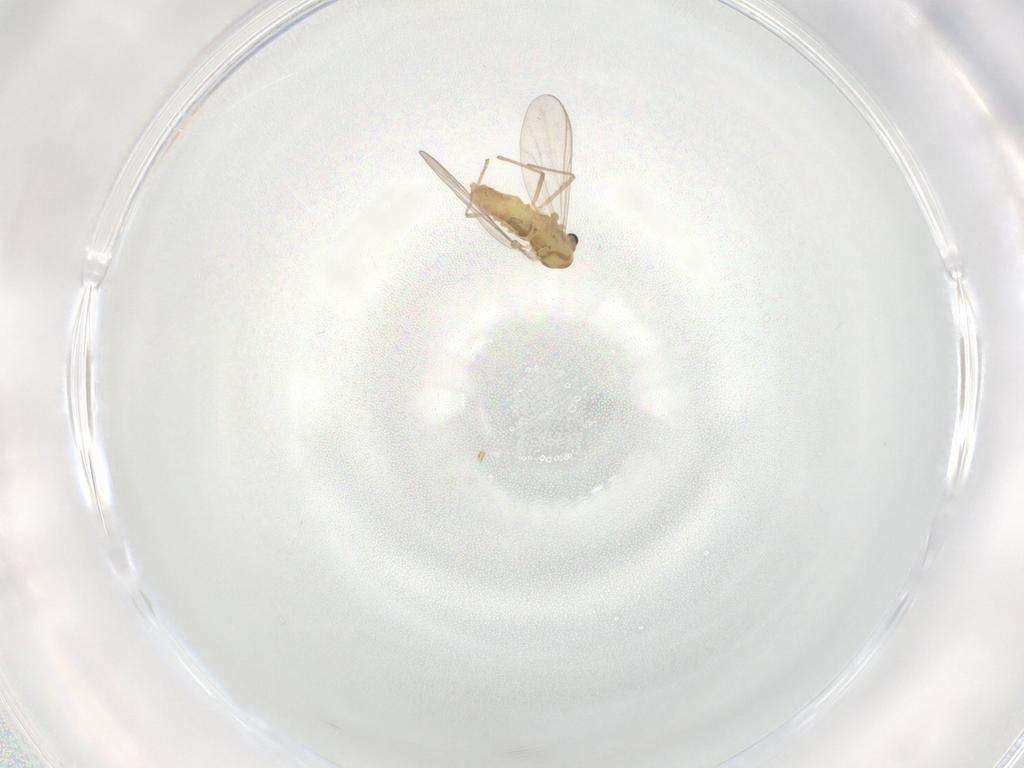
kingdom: Animalia
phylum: Arthropoda
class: Insecta
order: Diptera
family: Chironomidae
